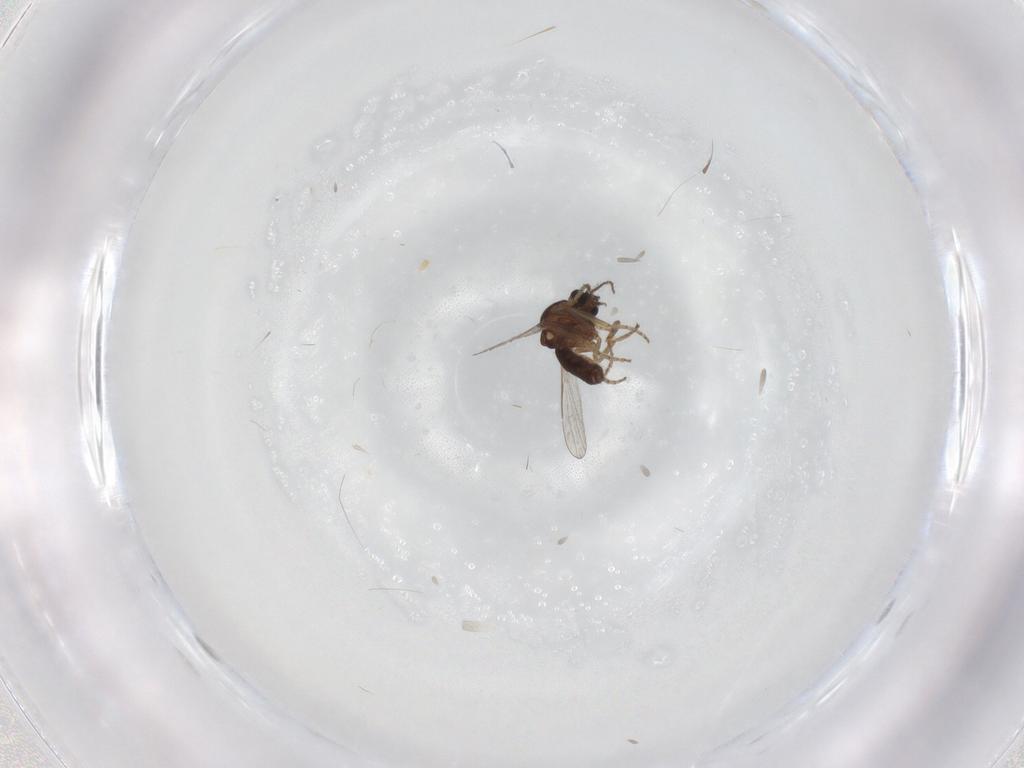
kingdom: Animalia
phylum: Arthropoda
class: Insecta
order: Diptera
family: Ceratopogonidae
